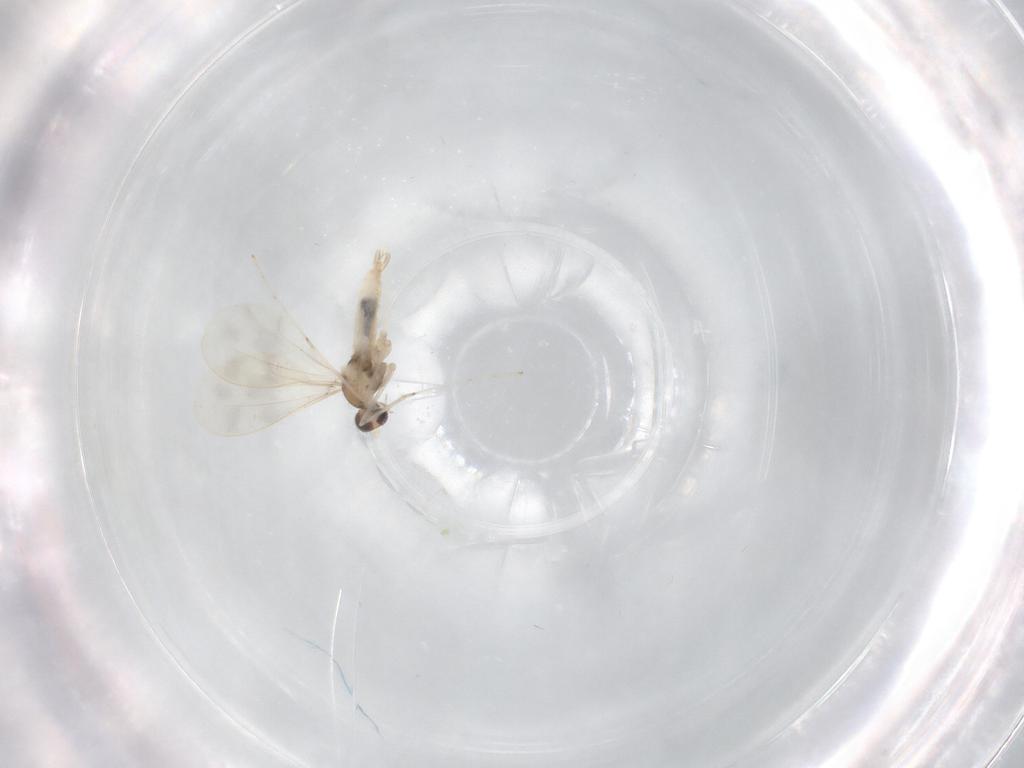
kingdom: Animalia
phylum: Arthropoda
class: Insecta
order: Diptera
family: Cecidomyiidae
